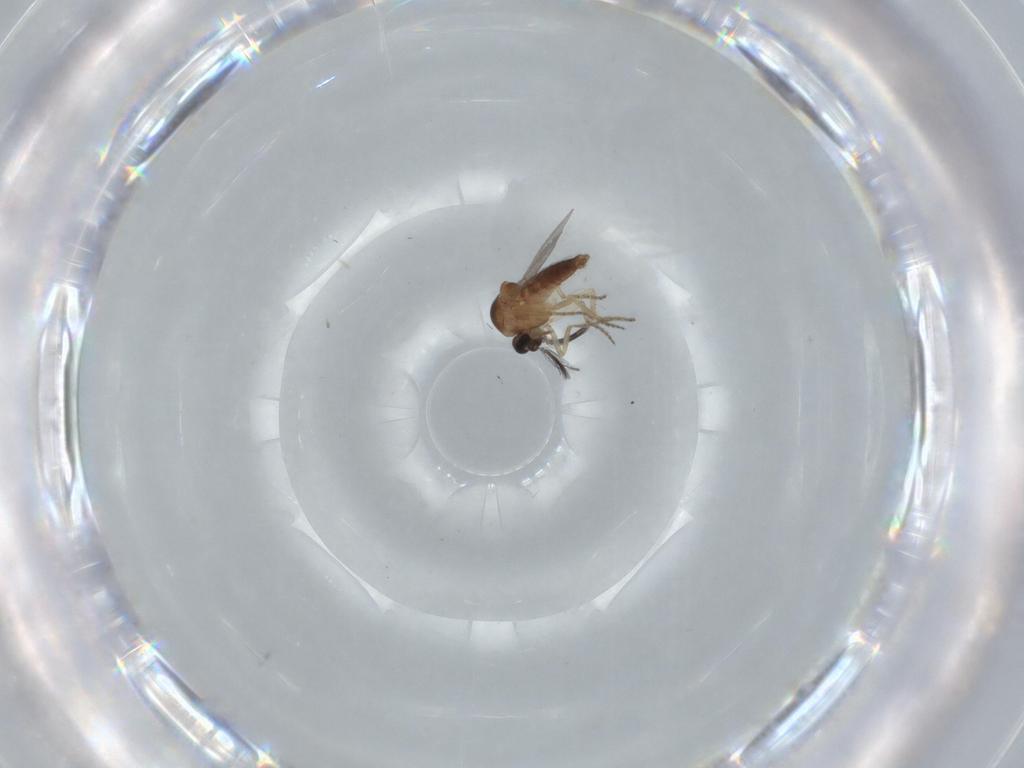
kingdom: Animalia
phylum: Arthropoda
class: Insecta
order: Diptera
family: Ceratopogonidae
